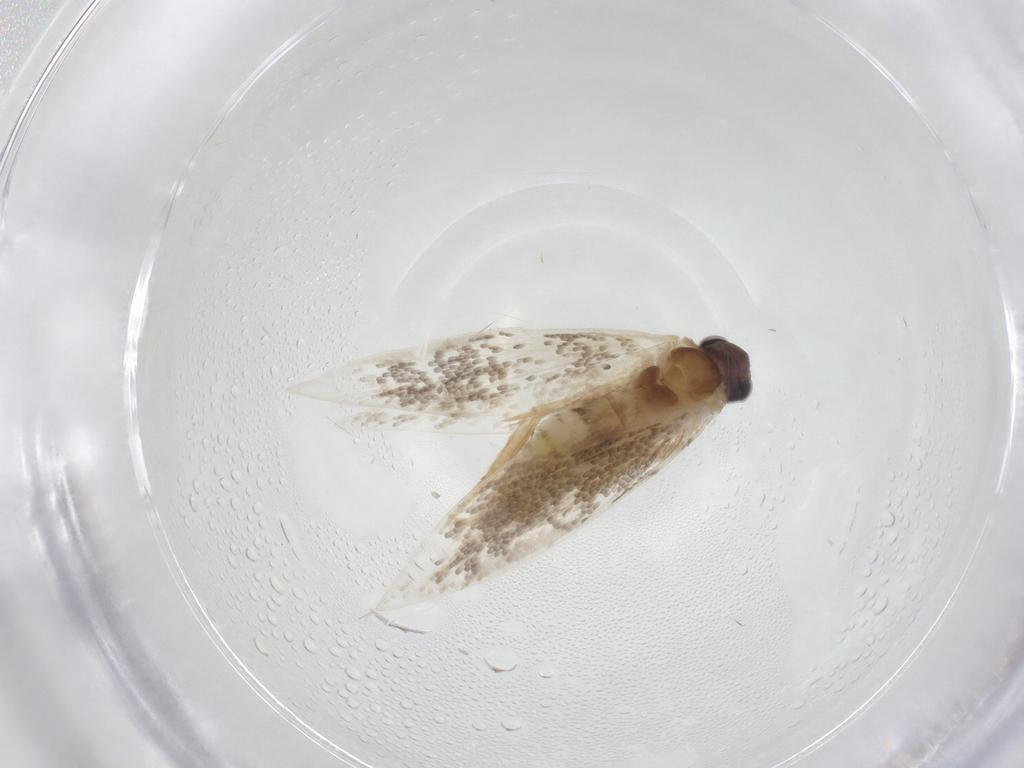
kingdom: Animalia
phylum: Arthropoda
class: Insecta
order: Lepidoptera
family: Tineidae
